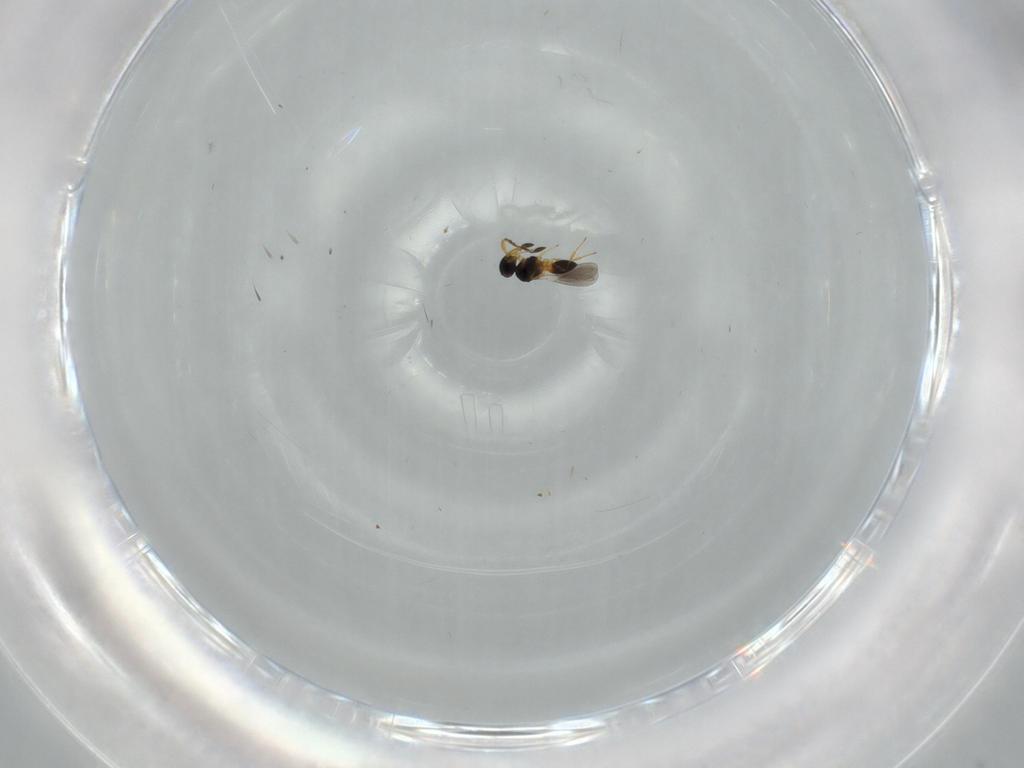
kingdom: Animalia
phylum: Arthropoda
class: Insecta
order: Hymenoptera
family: Platygastridae
